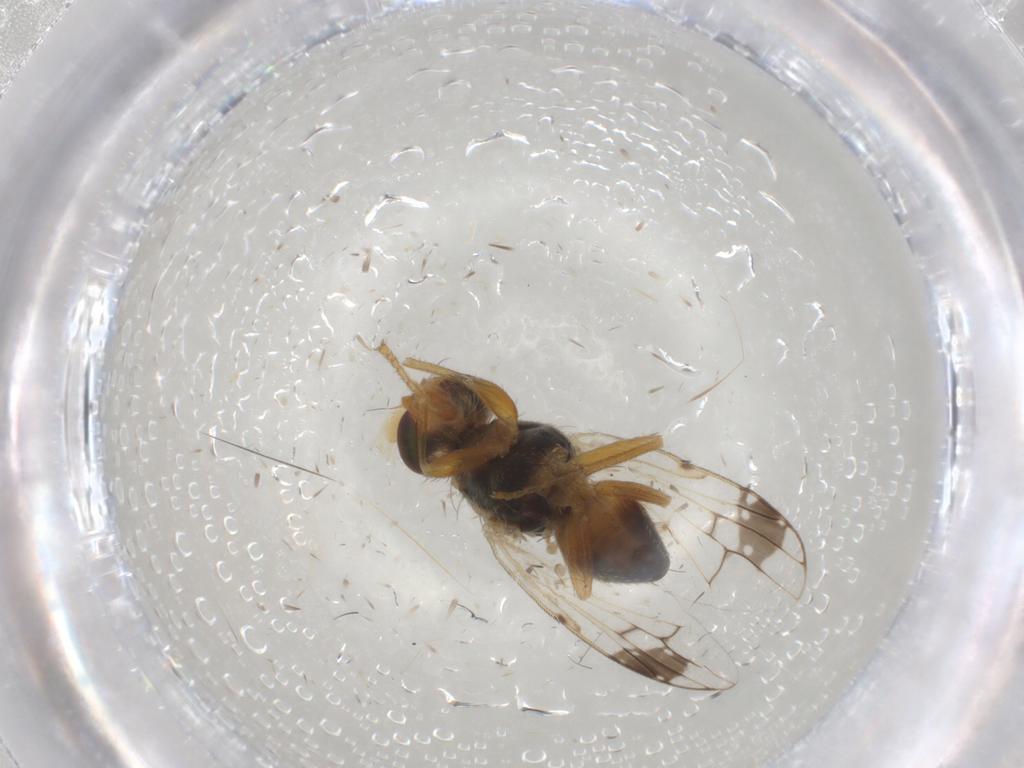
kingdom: Animalia
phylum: Arthropoda
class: Insecta
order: Diptera
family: Tephritidae
